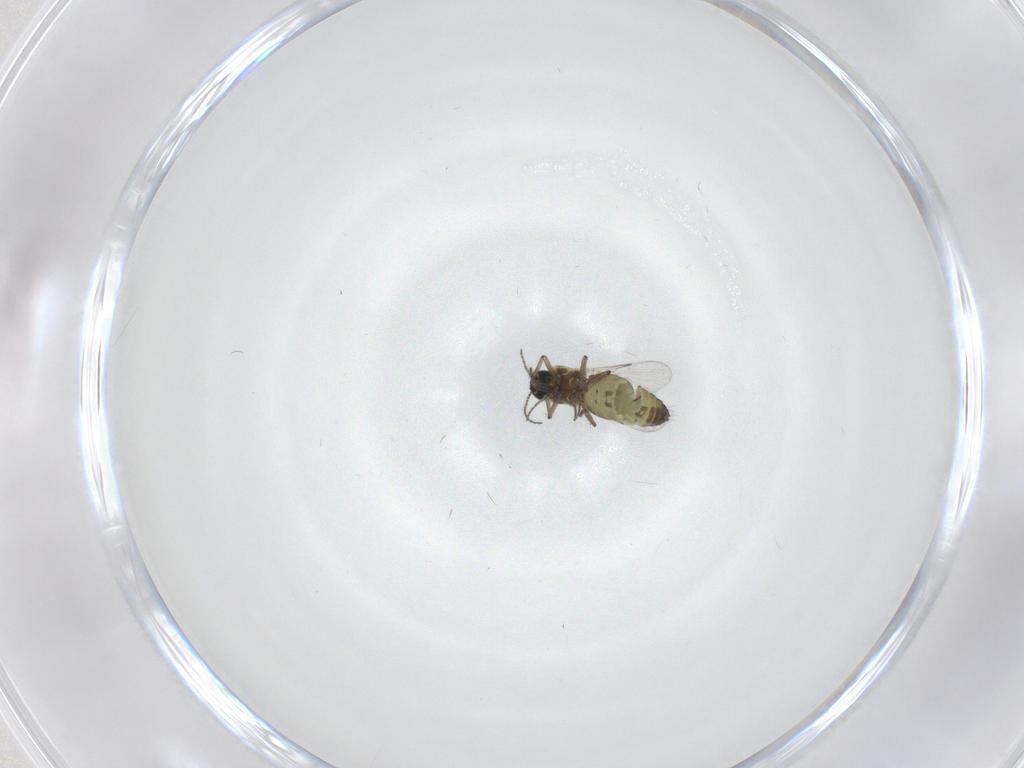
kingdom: Animalia
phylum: Arthropoda
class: Insecta
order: Diptera
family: Ceratopogonidae
